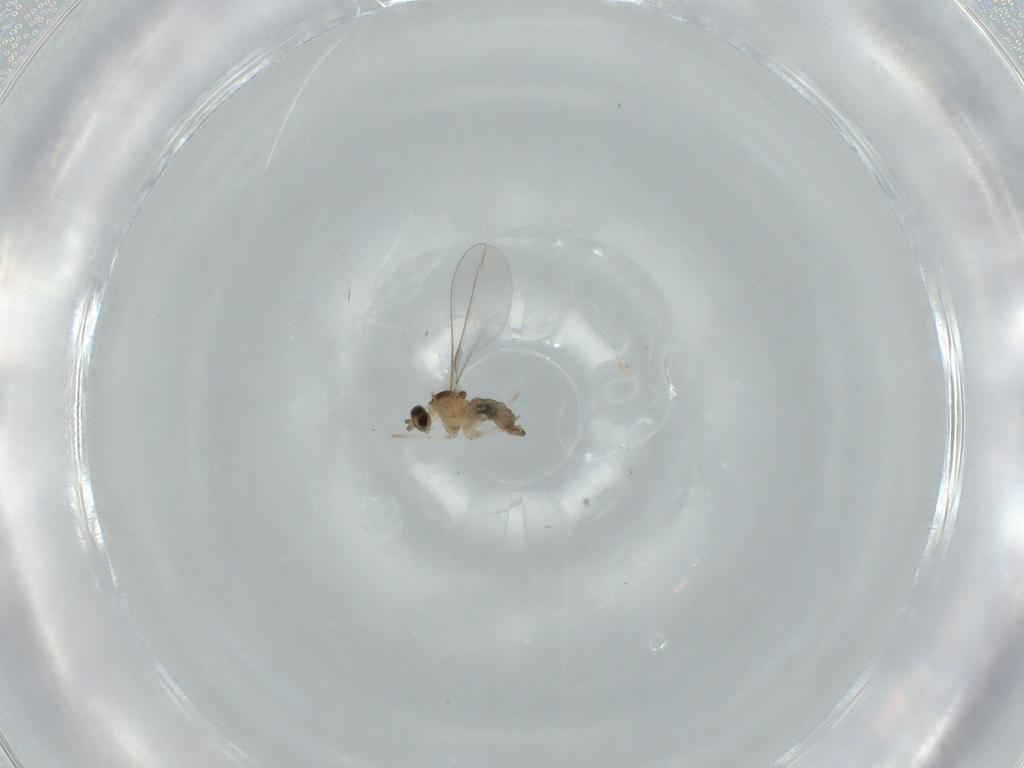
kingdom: Animalia
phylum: Arthropoda
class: Insecta
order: Diptera
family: Cecidomyiidae
